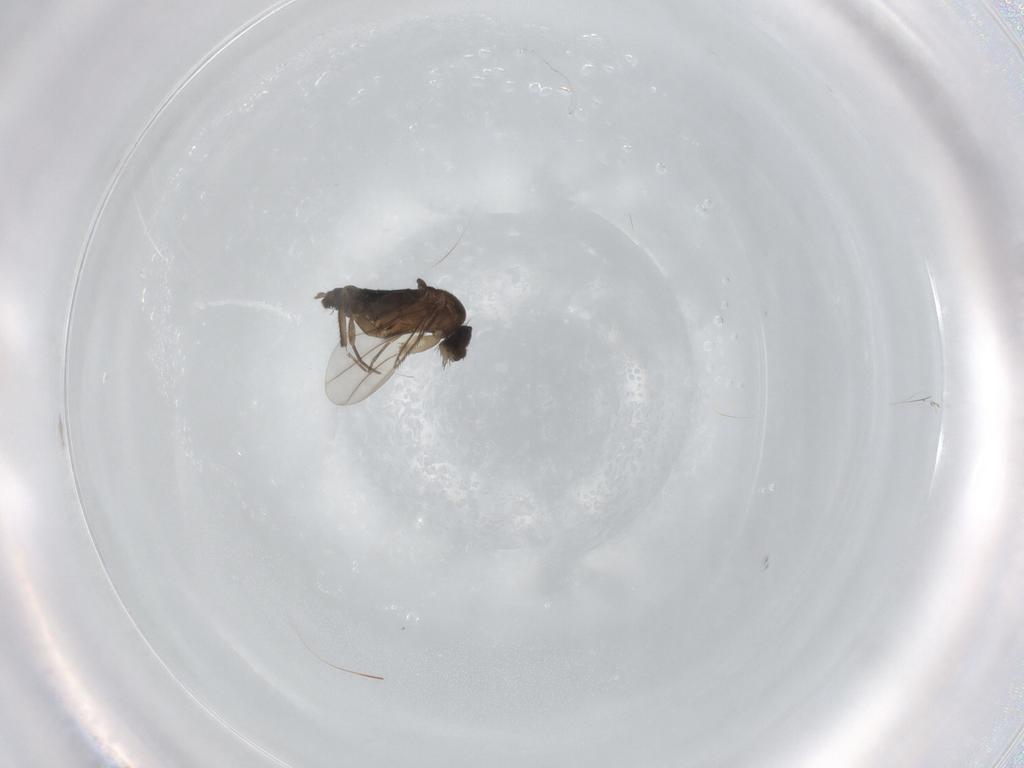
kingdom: Animalia
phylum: Arthropoda
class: Insecta
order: Diptera
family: Phoridae
